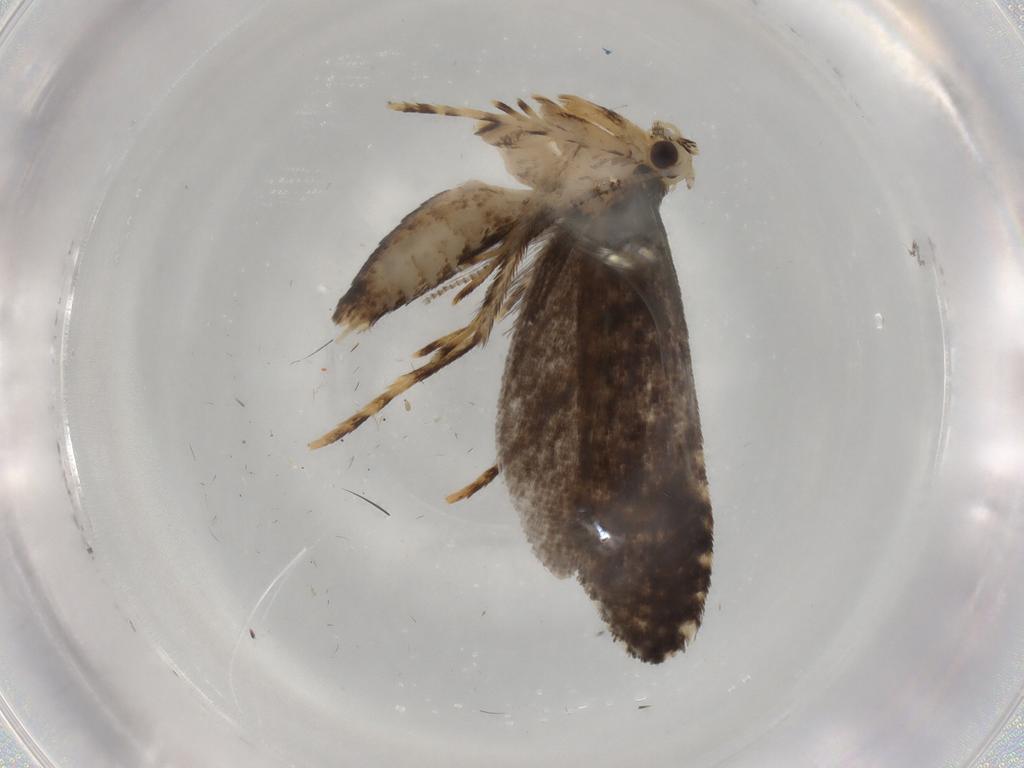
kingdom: Animalia
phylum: Arthropoda
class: Insecta
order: Lepidoptera
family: Tineidae
